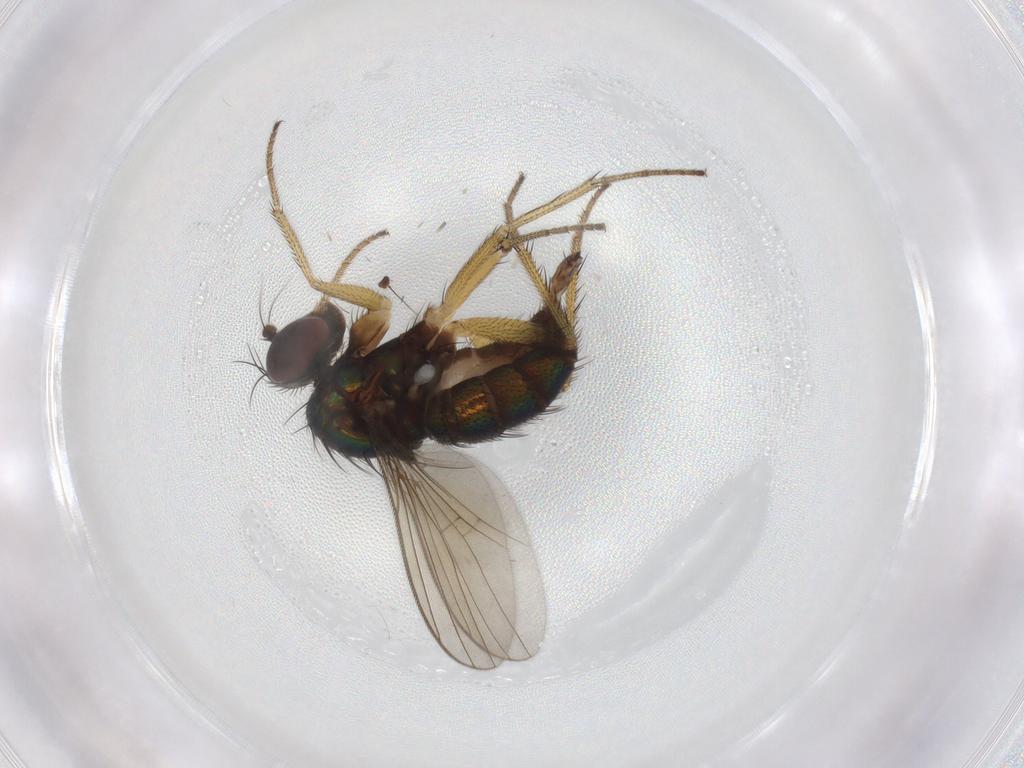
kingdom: Animalia
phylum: Arthropoda
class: Insecta
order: Diptera
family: Dolichopodidae
